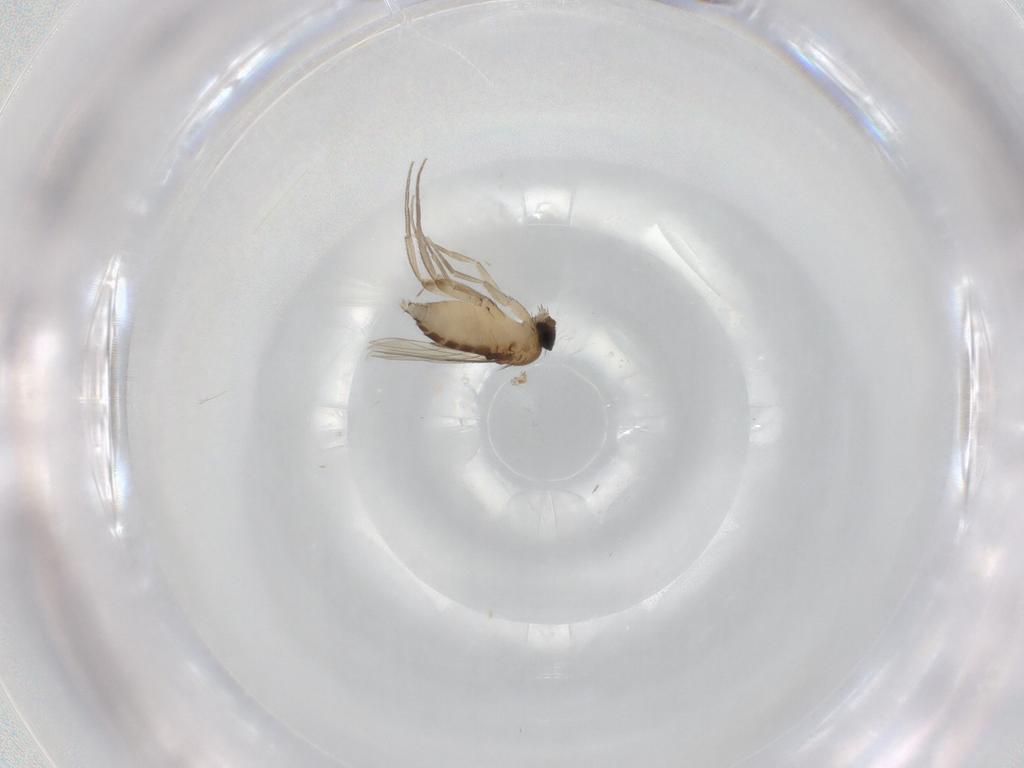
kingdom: Animalia
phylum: Arthropoda
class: Insecta
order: Diptera
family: Phoridae
